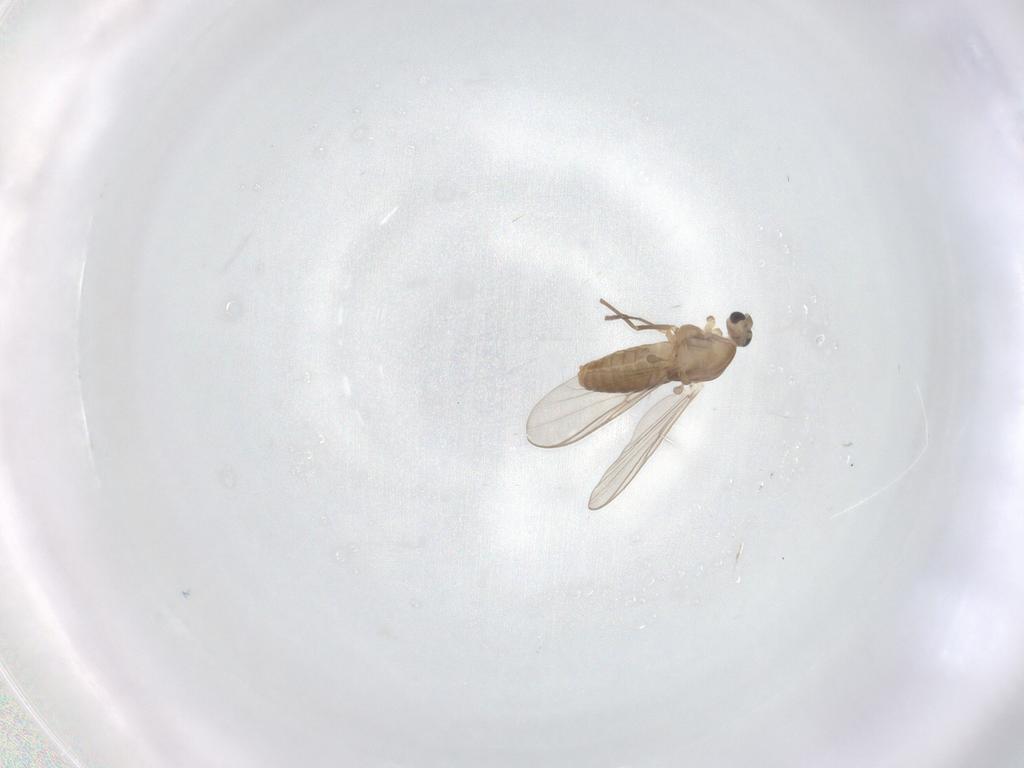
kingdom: Animalia
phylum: Arthropoda
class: Insecta
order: Diptera
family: Chironomidae
